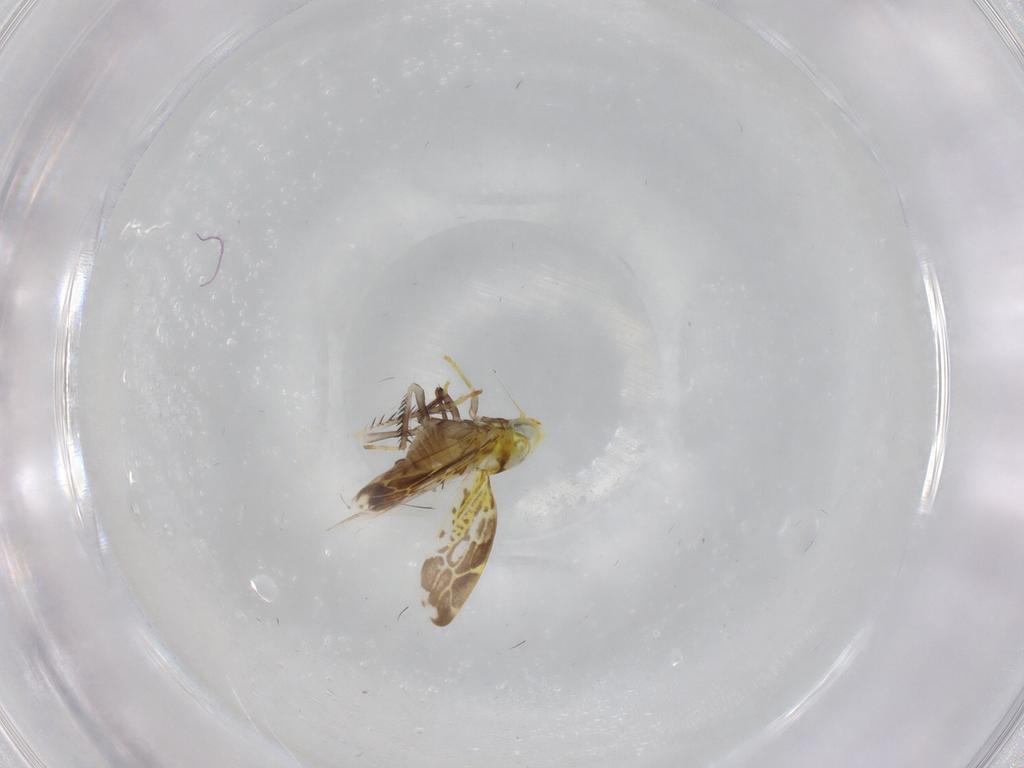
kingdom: Animalia
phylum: Arthropoda
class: Insecta
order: Hemiptera
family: Cicadellidae
